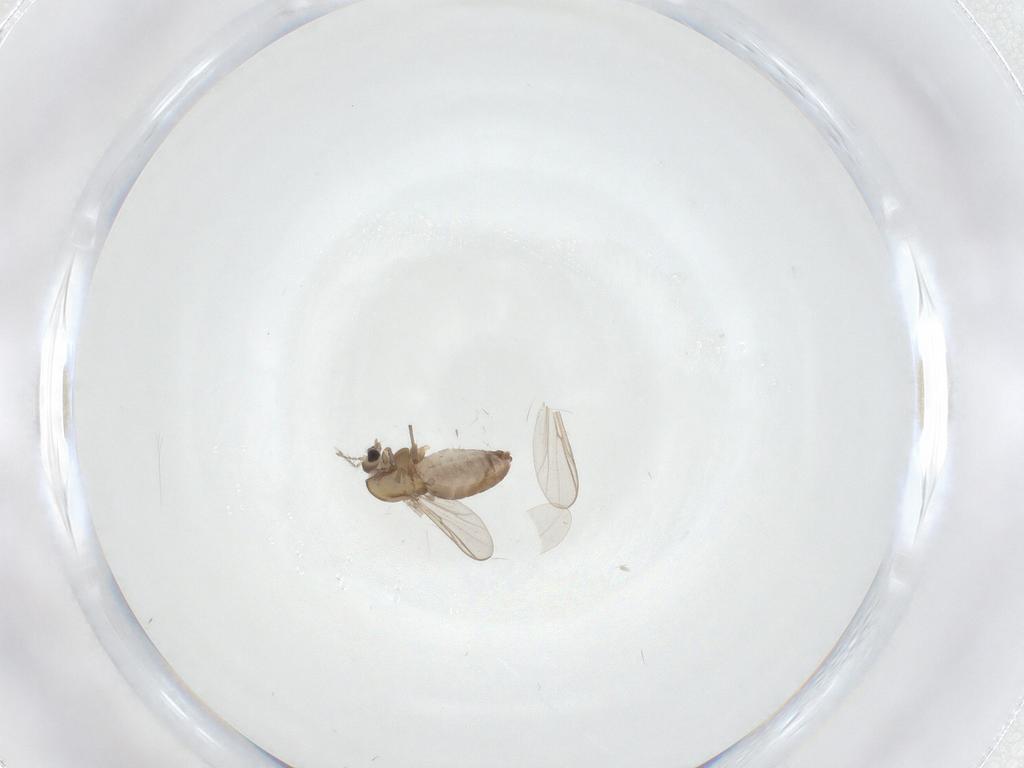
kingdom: Animalia
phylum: Arthropoda
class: Insecta
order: Diptera
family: Chironomidae
